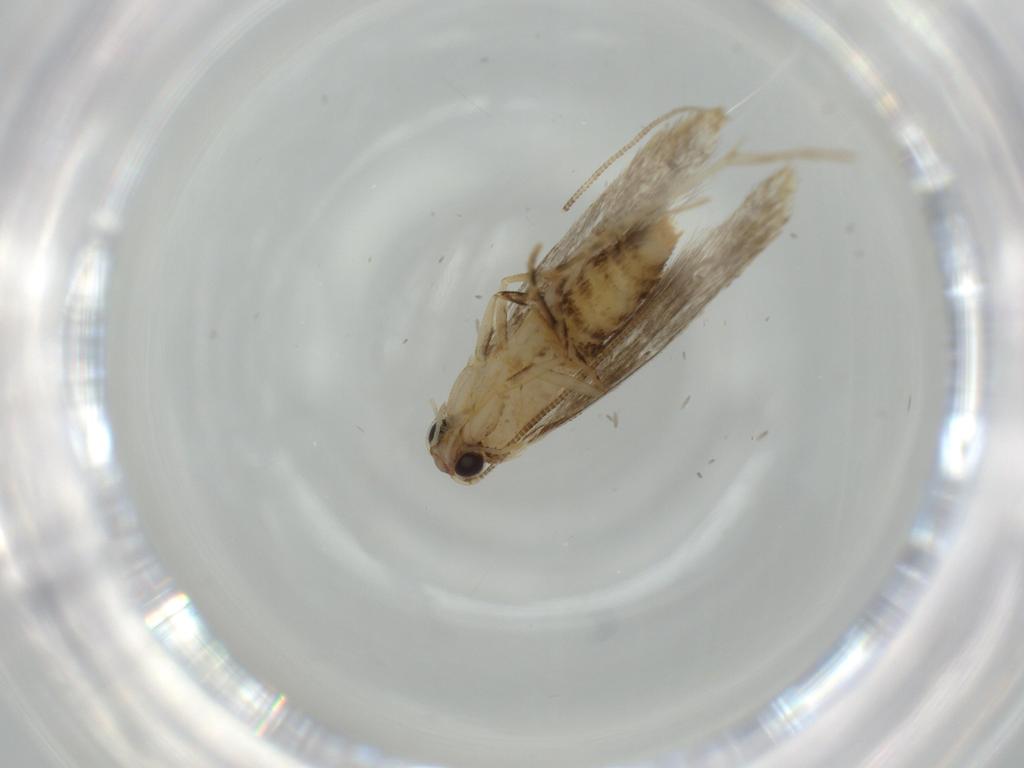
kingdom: Animalia
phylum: Arthropoda
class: Insecta
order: Lepidoptera
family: Tineidae
